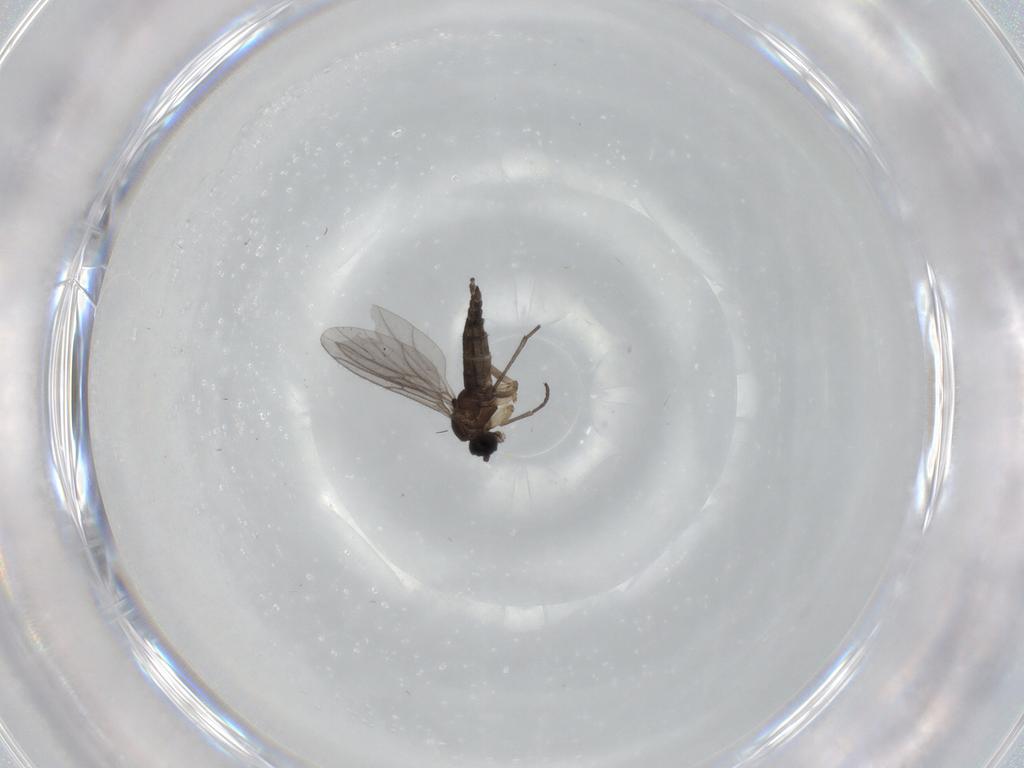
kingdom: Animalia
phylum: Arthropoda
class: Insecta
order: Diptera
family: Sciaridae
